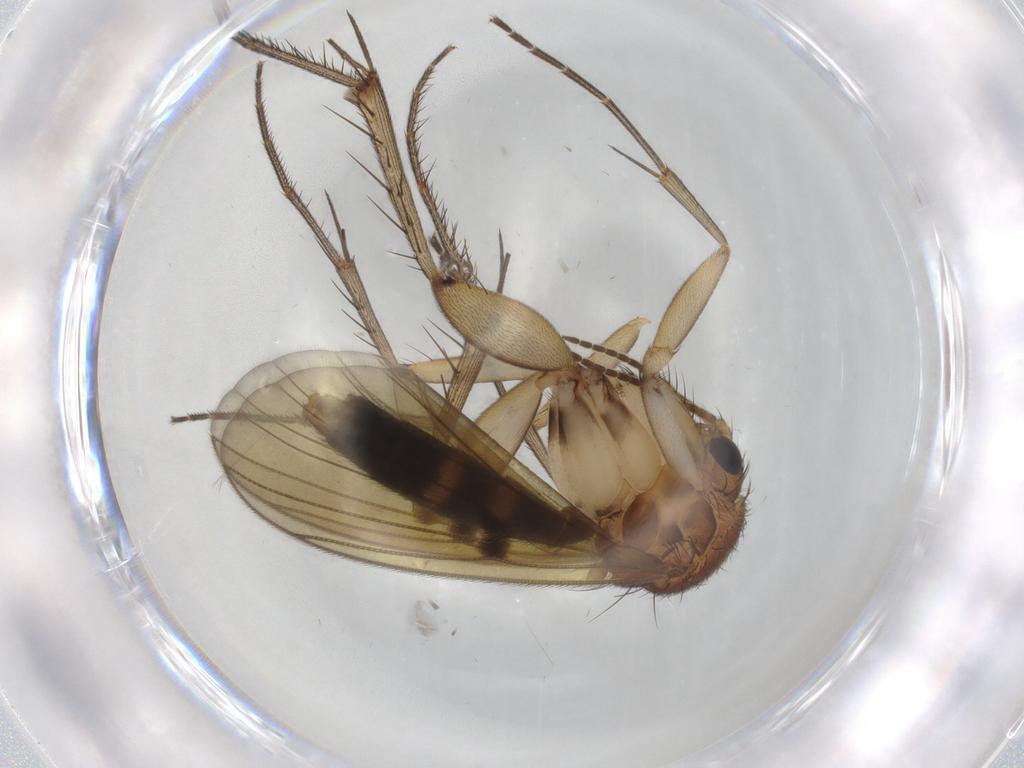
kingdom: Animalia
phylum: Arthropoda
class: Insecta
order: Diptera
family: Mycetophilidae
